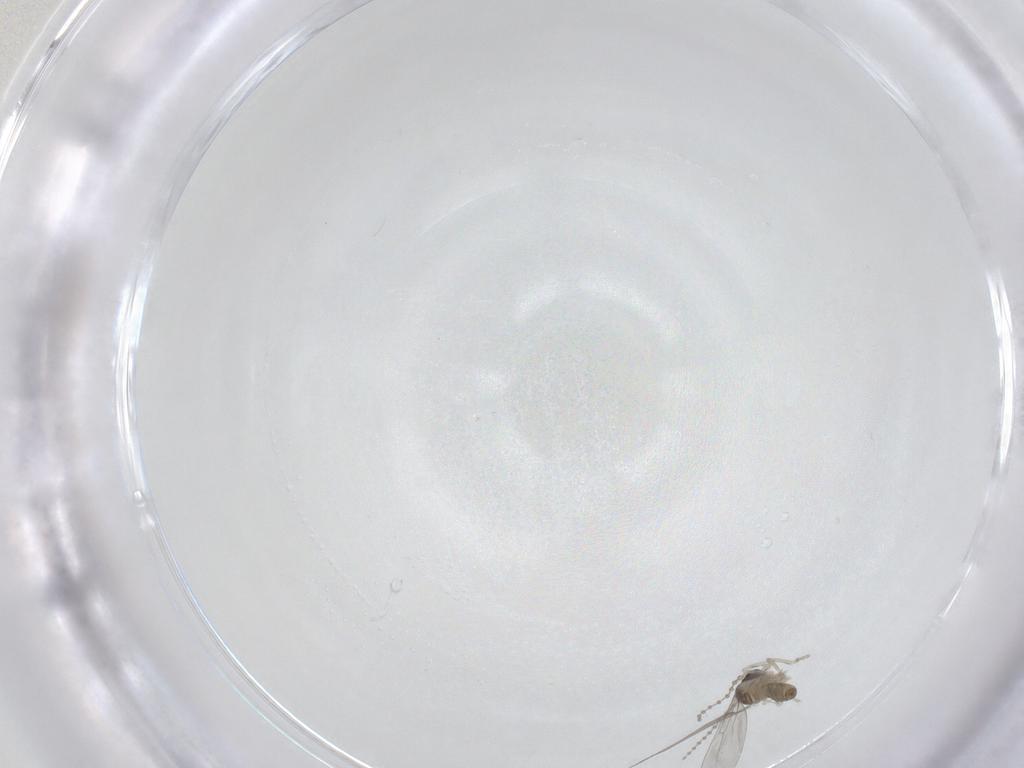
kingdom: Animalia
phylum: Arthropoda
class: Insecta
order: Diptera
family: Cecidomyiidae
